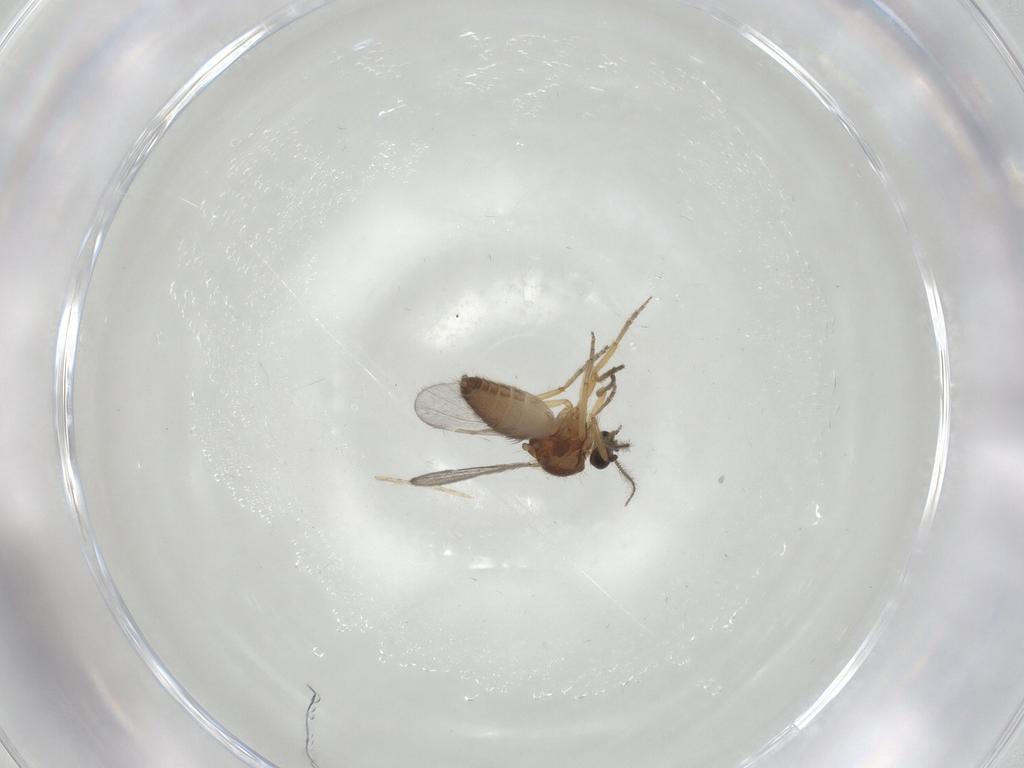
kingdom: Animalia
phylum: Arthropoda
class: Insecta
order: Diptera
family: Ceratopogonidae
